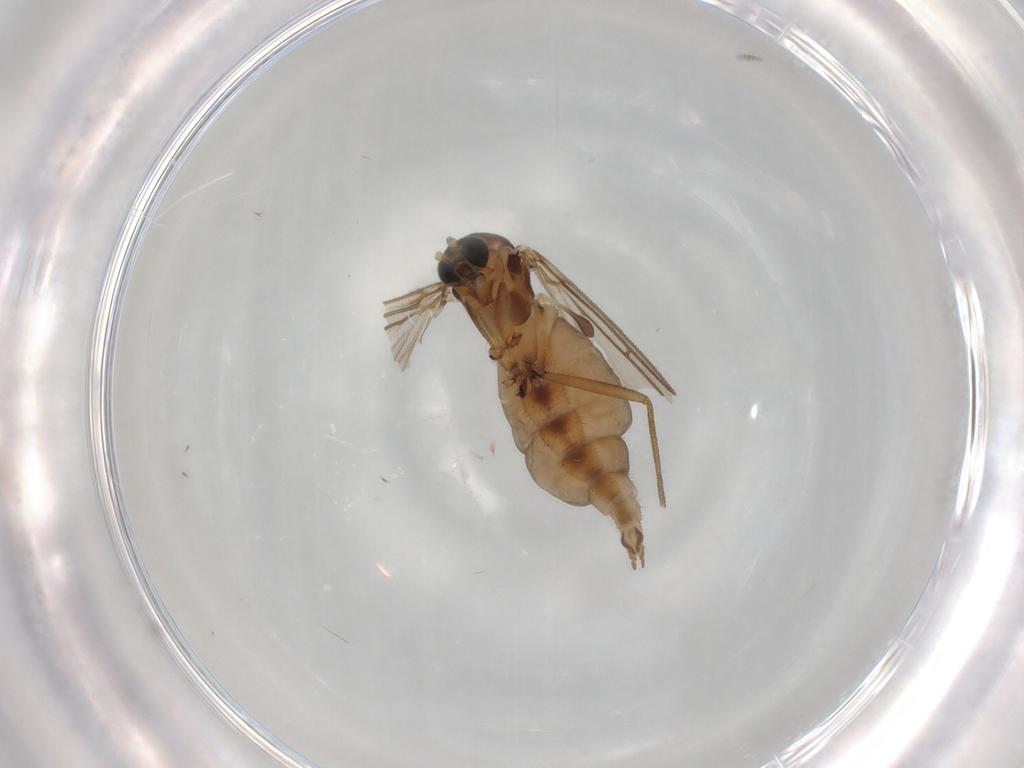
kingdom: Animalia
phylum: Arthropoda
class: Insecta
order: Diptera
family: Sciaridae
